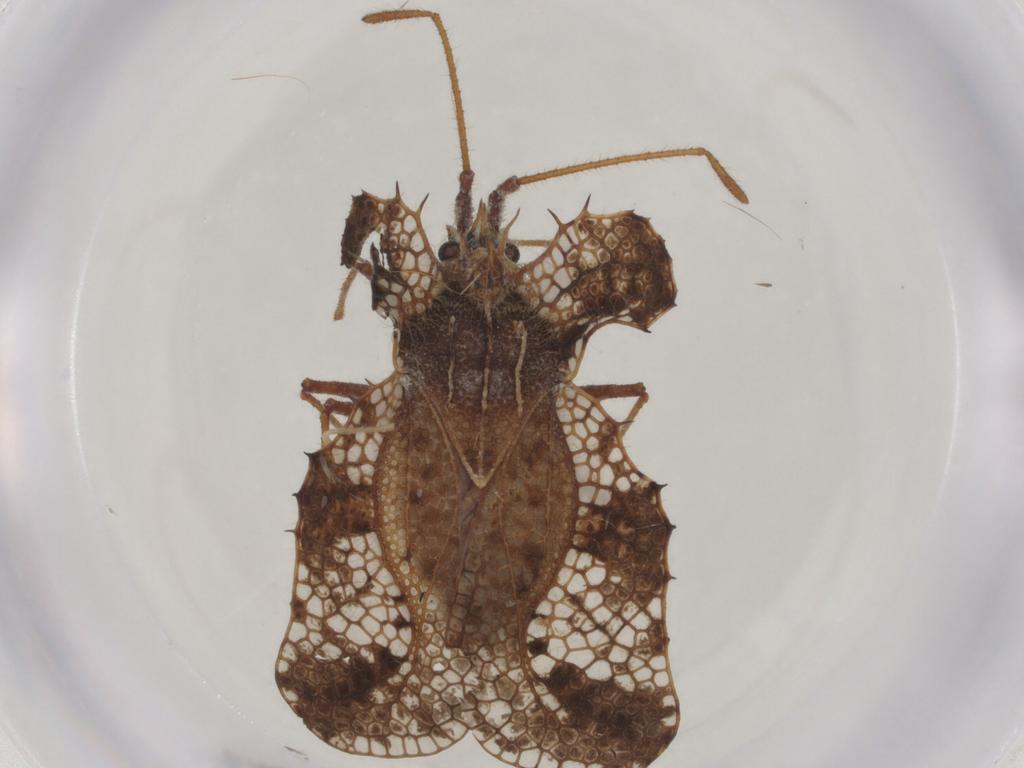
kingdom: Animalia
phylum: Arthropoda
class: Insecta
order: Hemiptera
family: Tingidae
